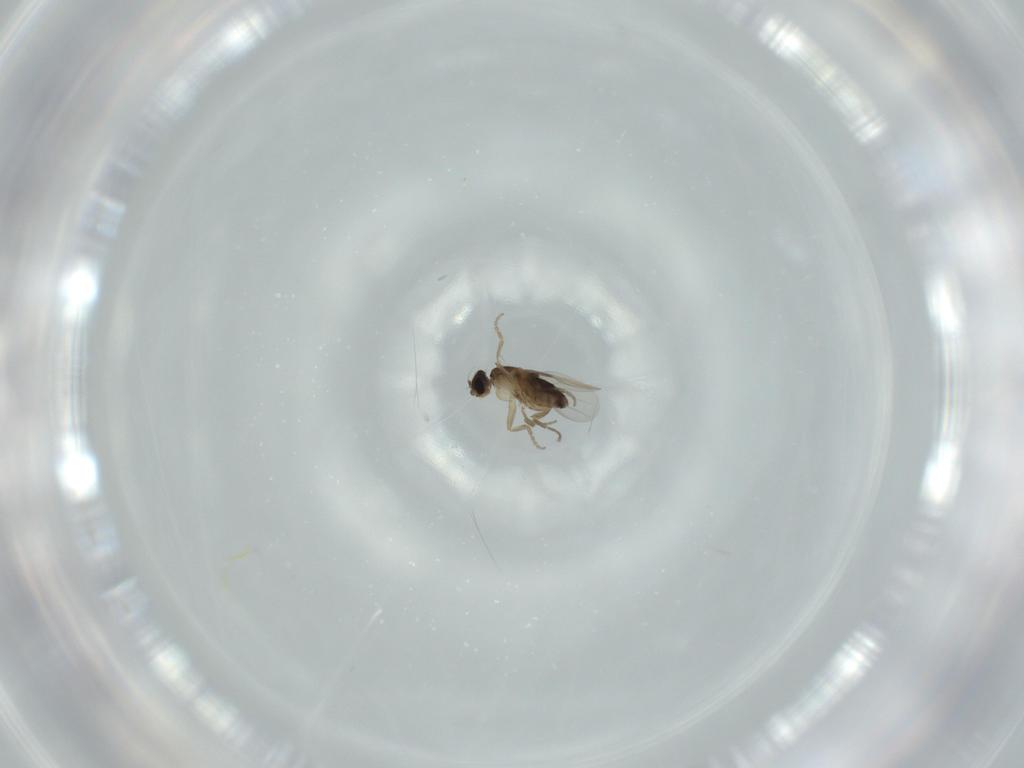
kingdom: Animalia
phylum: Arthropoda
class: Insecta
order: Diptera
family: Phoridae
